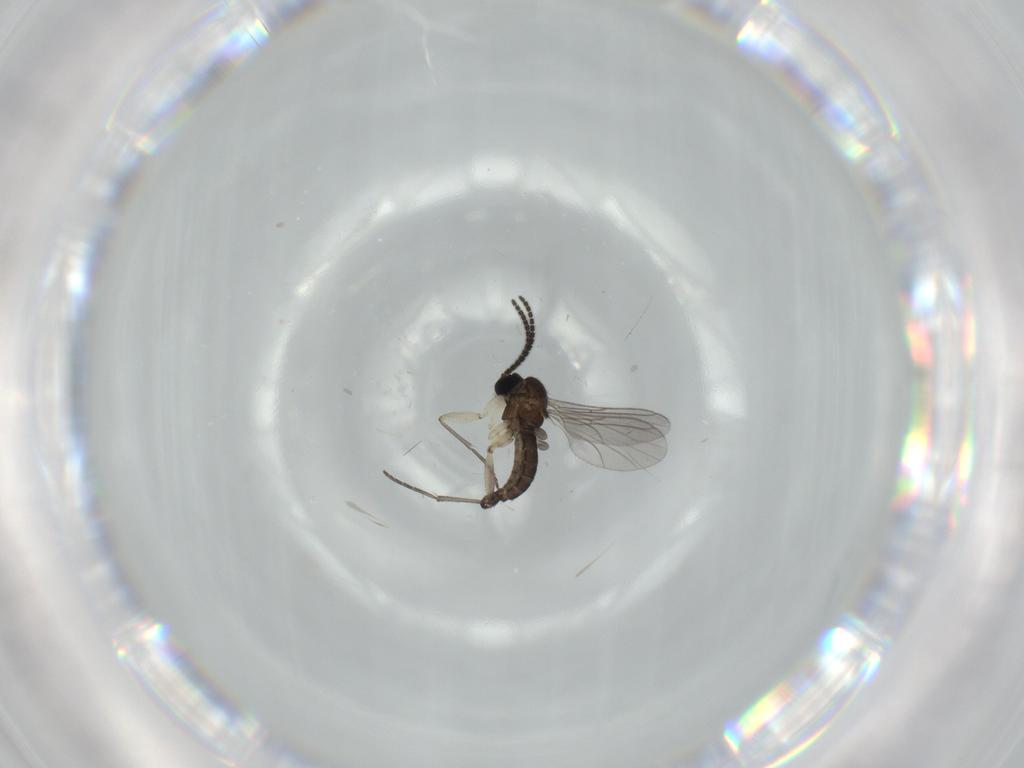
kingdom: Animalia
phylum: Arthropoda
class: Insecta
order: Diptera
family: Sciaridae
